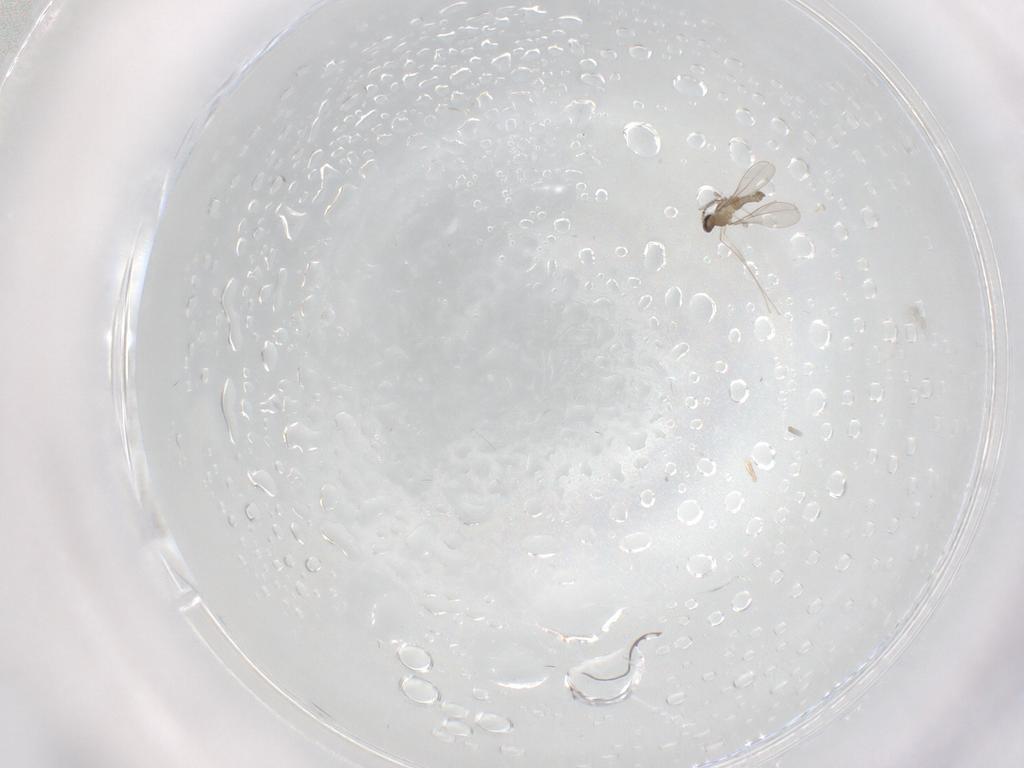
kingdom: Animalia
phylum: Arthropoda
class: Insecta
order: Diptera
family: Cecidomyiidae
